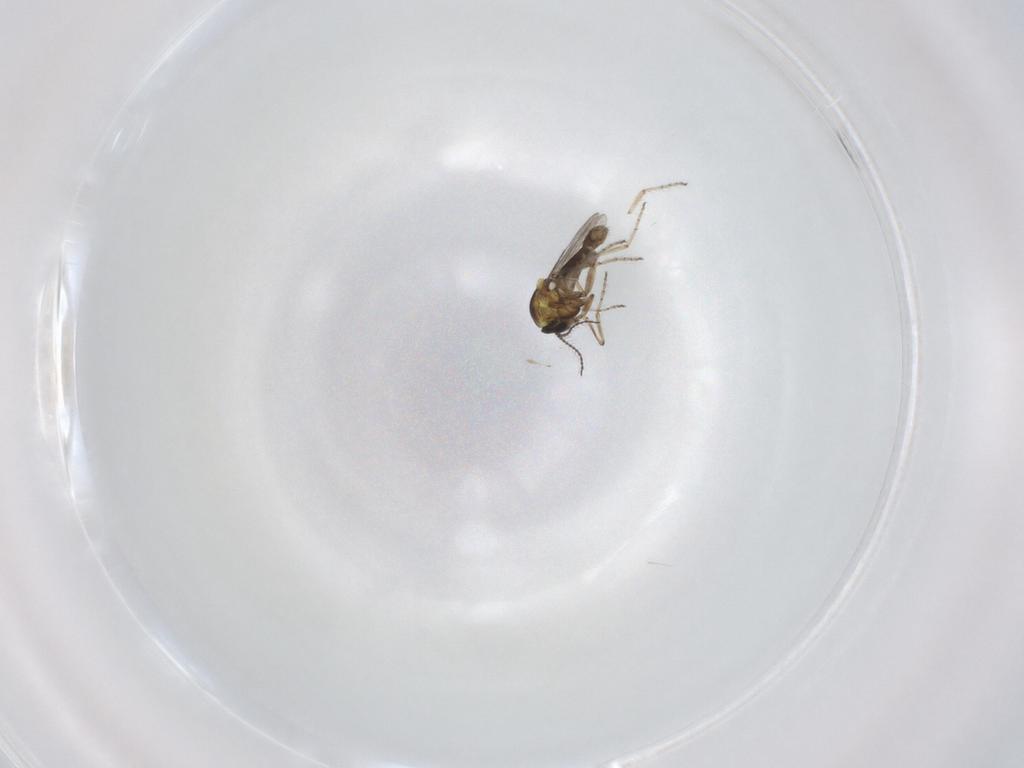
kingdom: Animalia
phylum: Arthropoda
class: Insecta
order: Diptera
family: Ceratopogonidae
